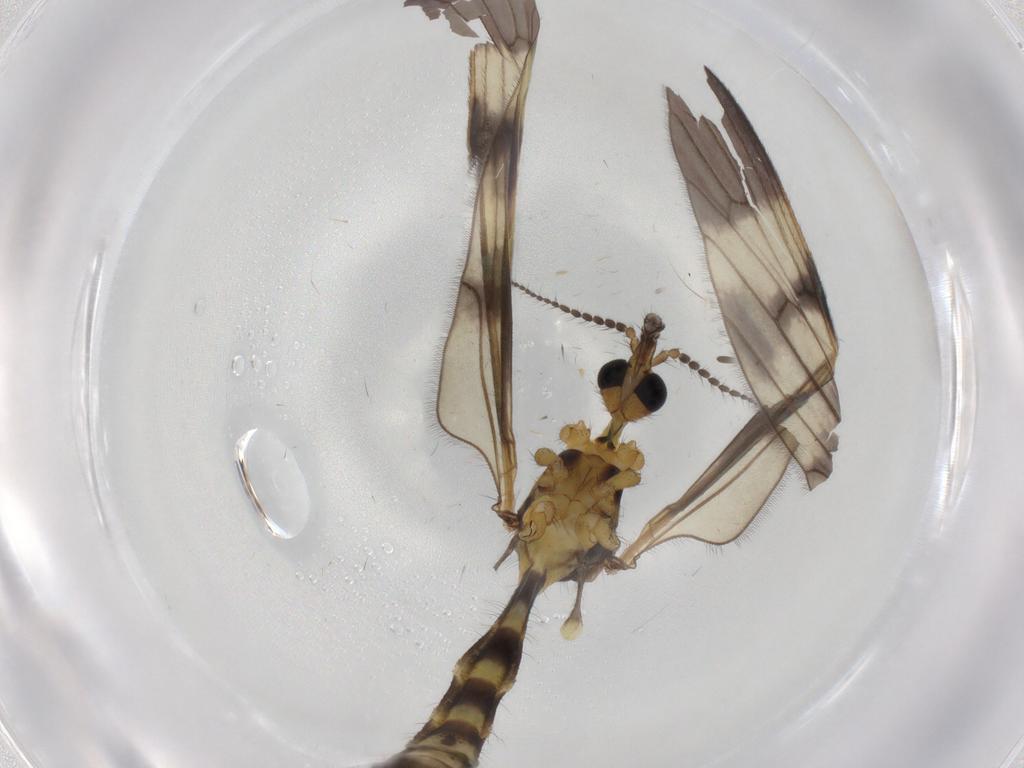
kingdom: Animalia
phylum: Arthropoda
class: Insecta
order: Diptera
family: Limoniidae
